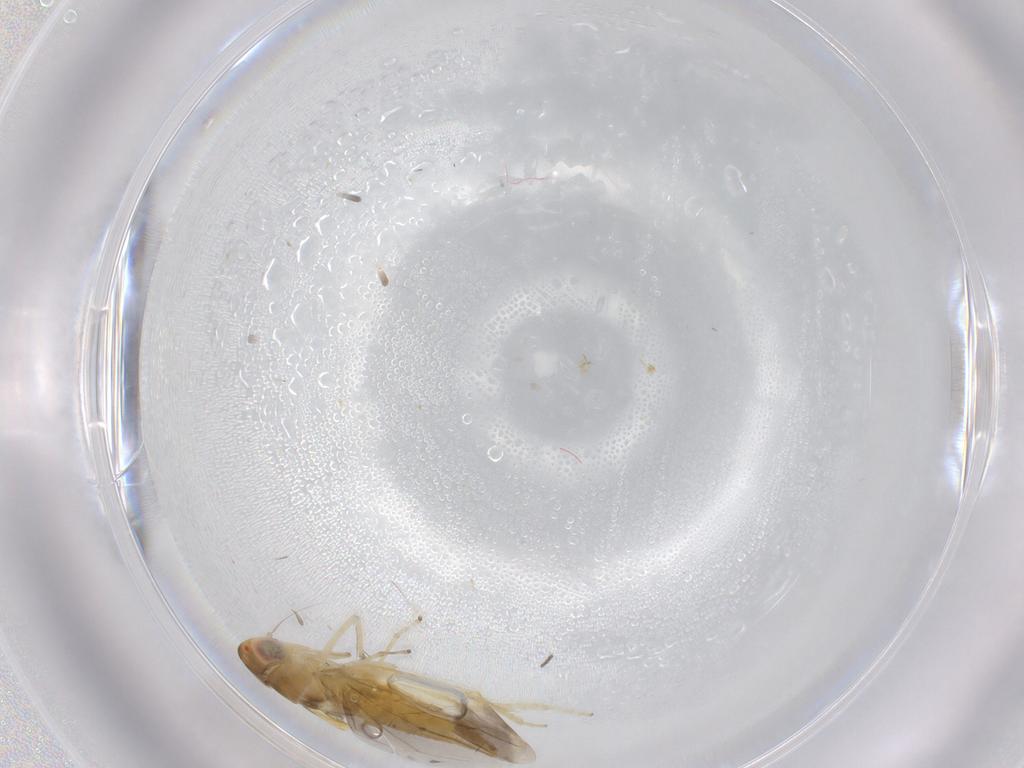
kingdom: Animalia
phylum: Arthropoda
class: Insecta
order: Hemiptera
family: Cicadellidae
